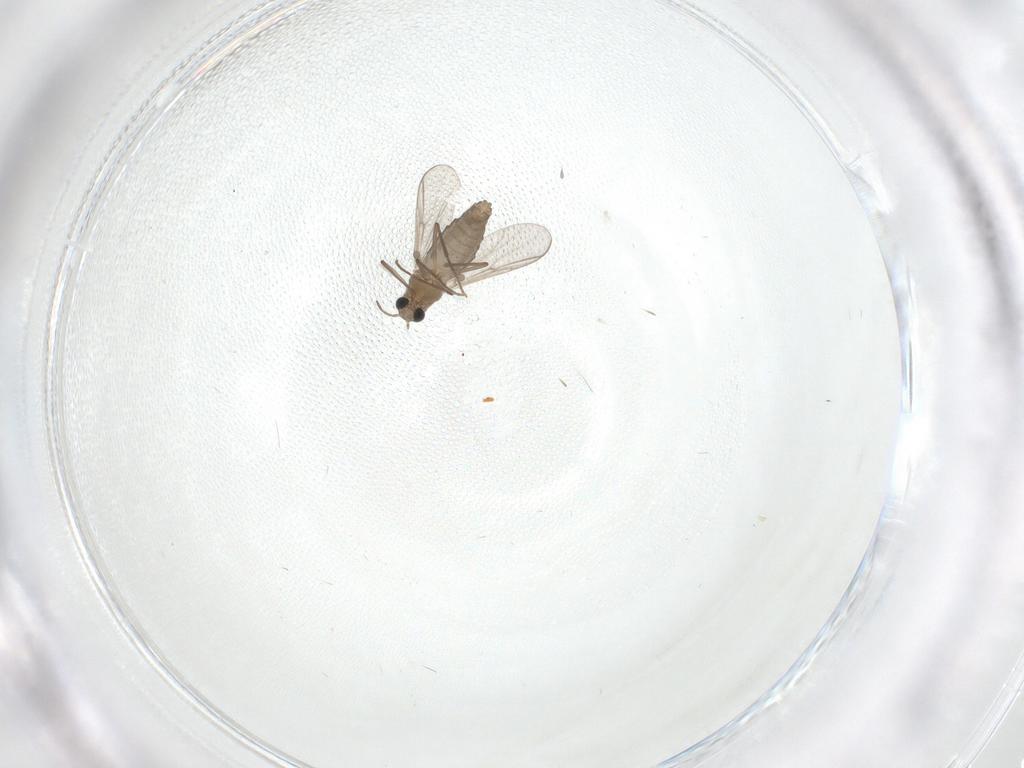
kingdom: Animalia
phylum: Arthropoda
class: Insecta
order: Diptera
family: Chironomidae
